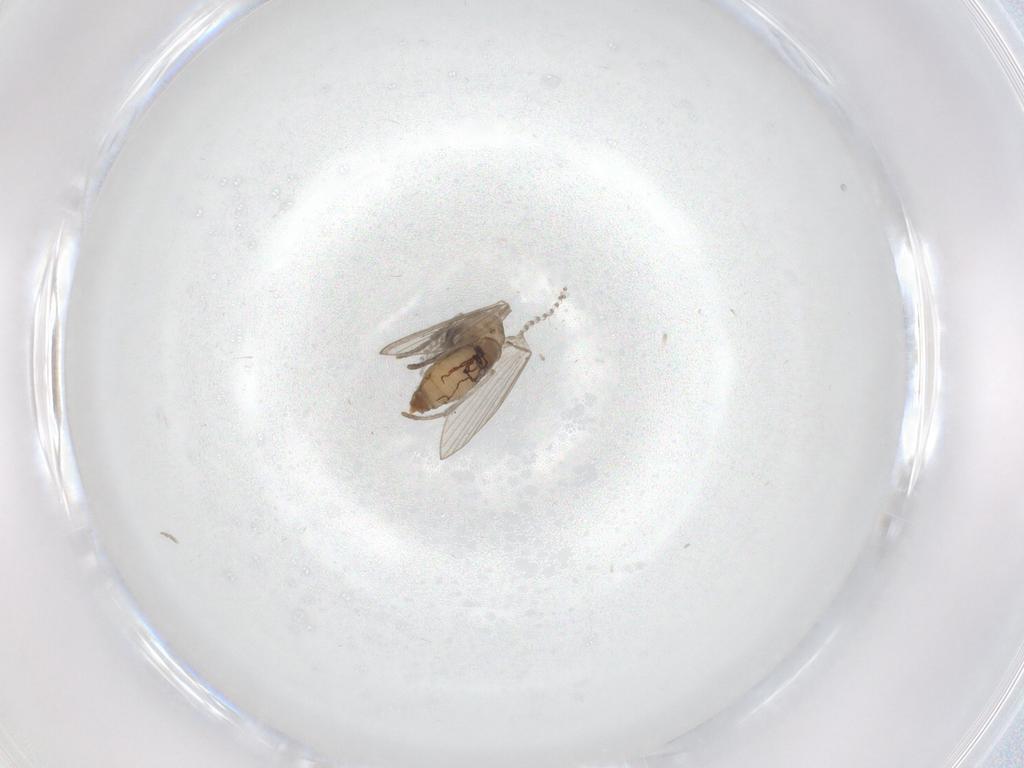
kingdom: Animalia
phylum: Arthropoda
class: Insecta
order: Diptera
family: Psychodidae
